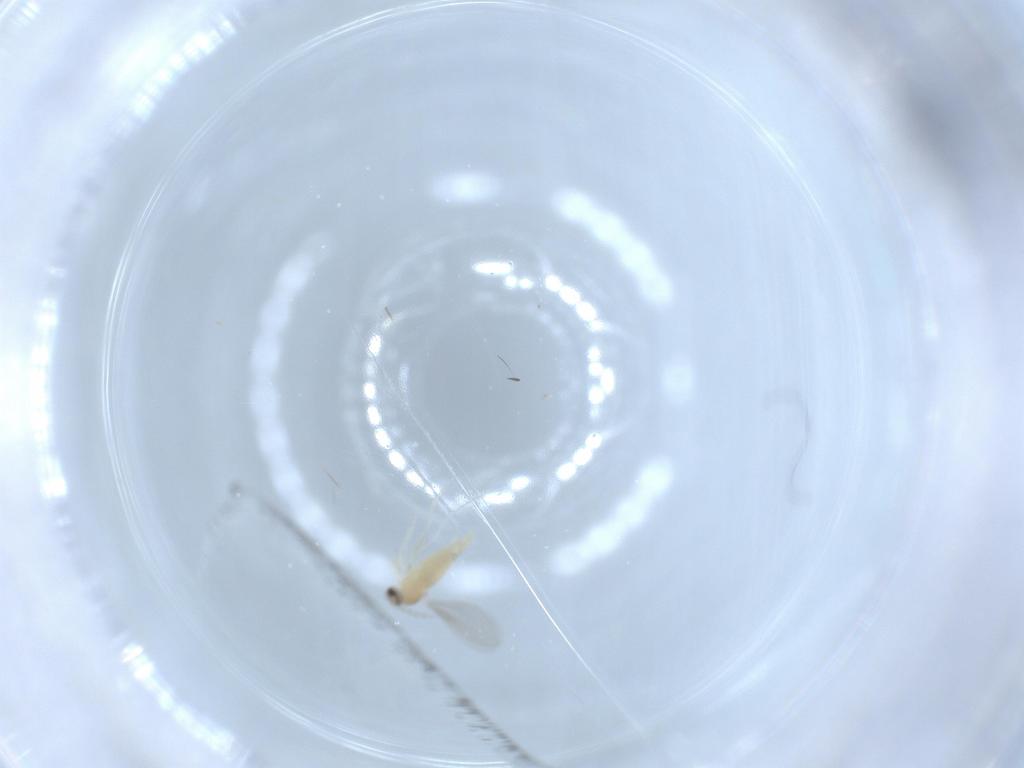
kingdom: Animalia
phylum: Arthropoda
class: Insecta
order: Diptera
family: Cecidomyiidae
